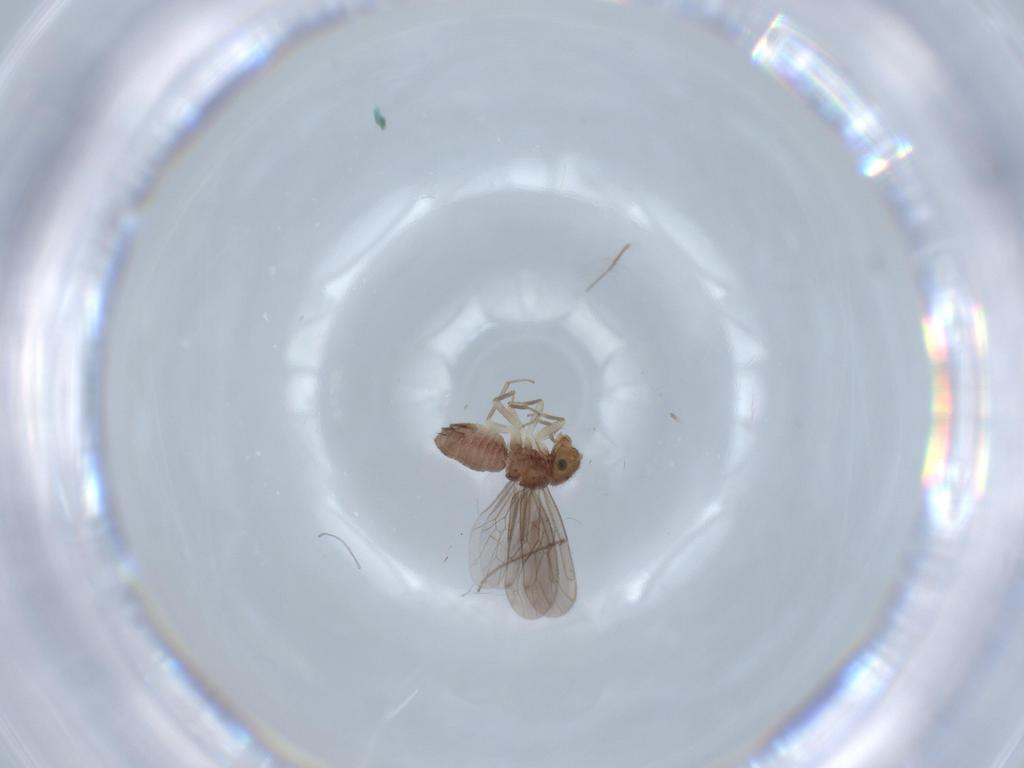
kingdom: Animalia
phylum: Arthropoda
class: Insecta
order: Psocodea
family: Ectopsocidae
